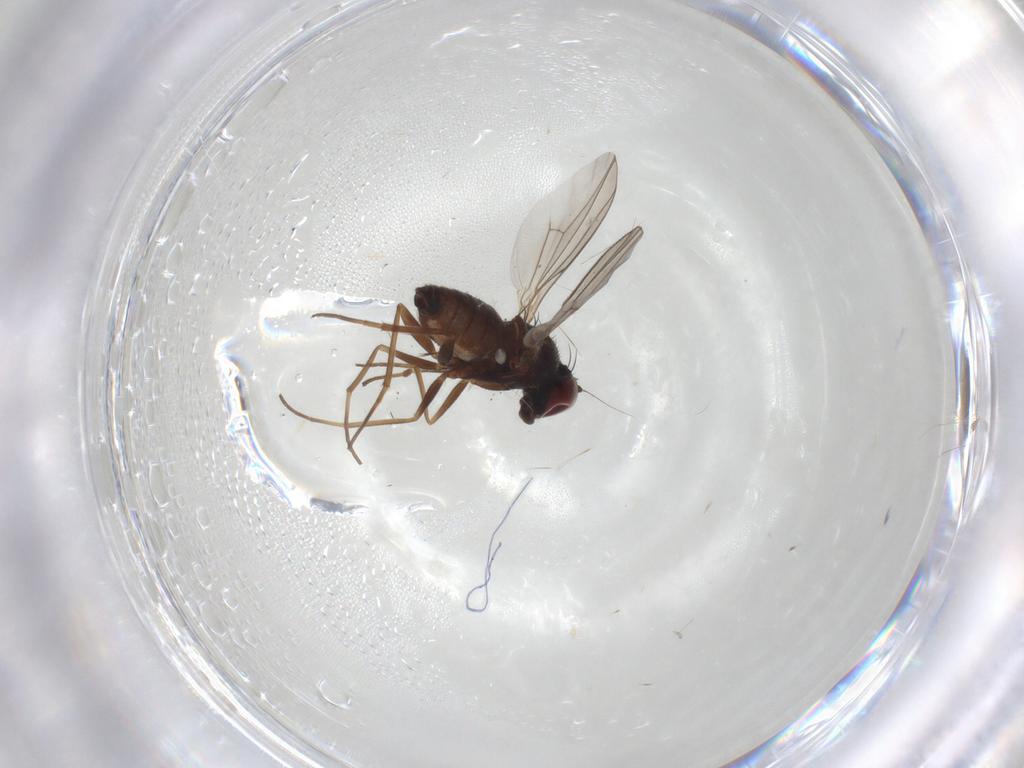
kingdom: Animalia
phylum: Arthropoda
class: Insecta
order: Diptera
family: Dolichopodidae
